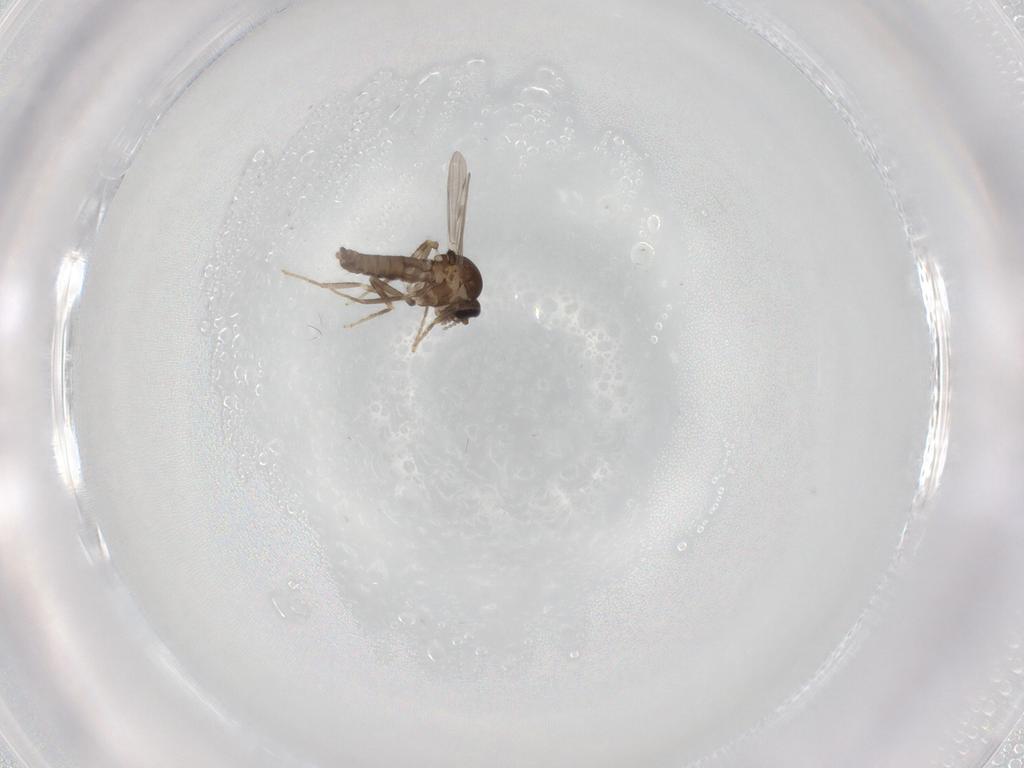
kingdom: Animalia
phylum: Arthropoda
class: Insecta
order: Diptera
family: Ceratopogonidae
